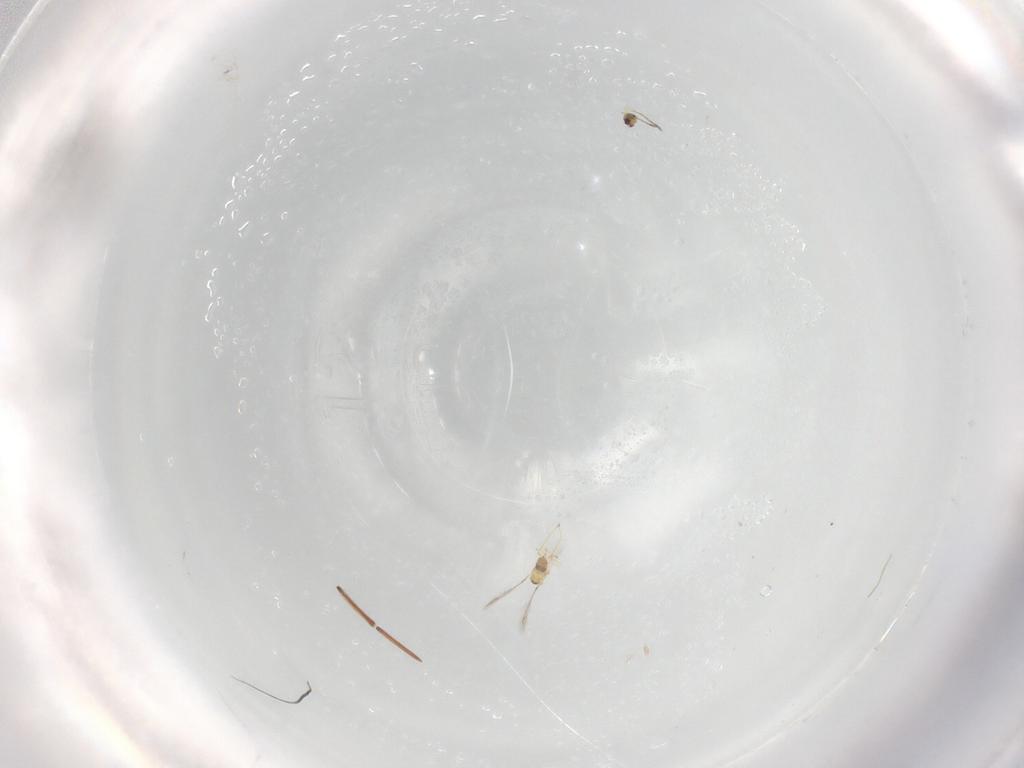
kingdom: Animalia
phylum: Arthropoda
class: Insecta
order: Hymenoptera
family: Mymaridae
